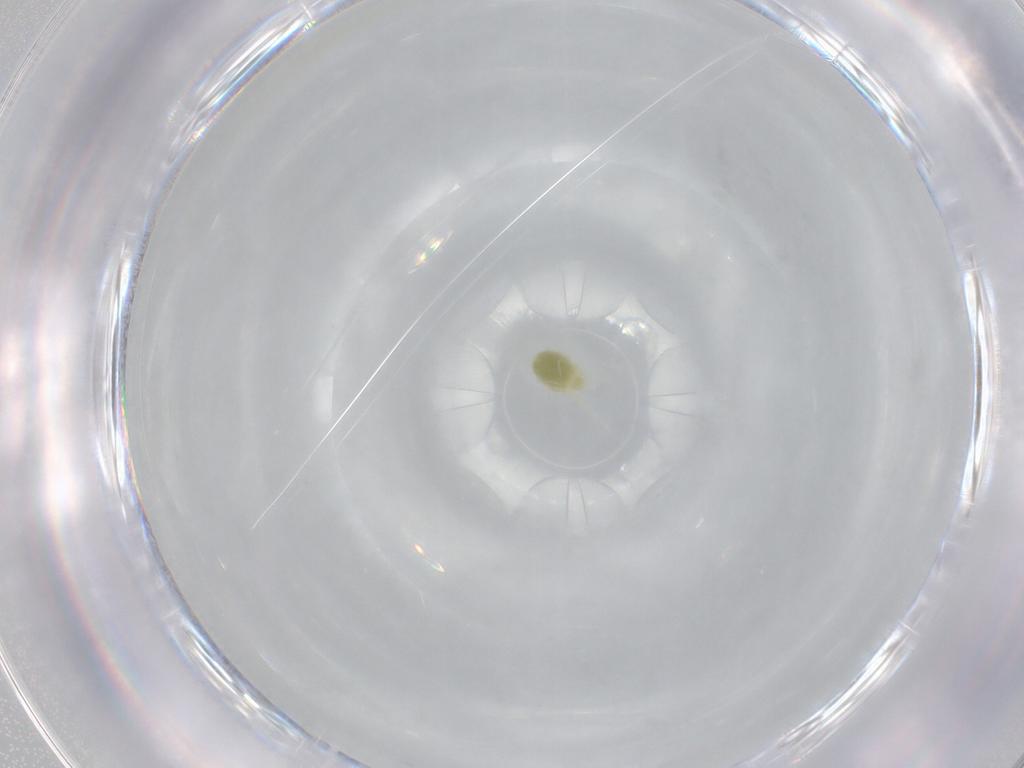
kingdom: Animalia
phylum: Arthropoda
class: Arachnida
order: Trombidiformes
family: Tetranychidae
